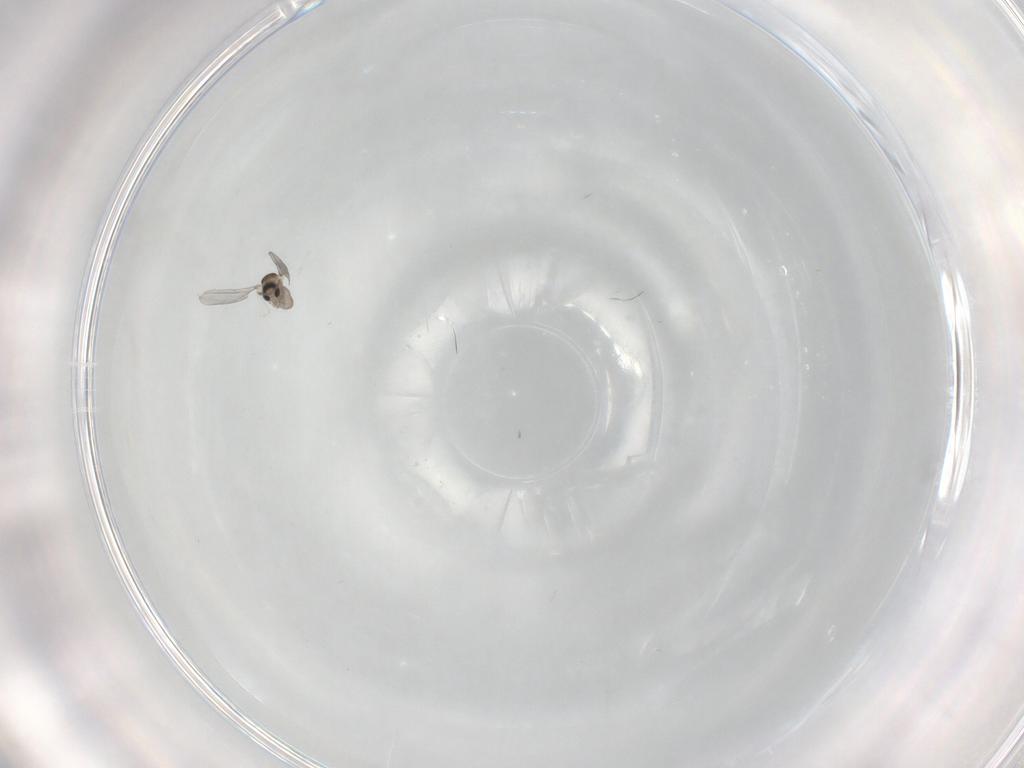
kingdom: Animalia
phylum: Arthropoda
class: Insecta
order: Diptera
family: Cecidomyiidae
